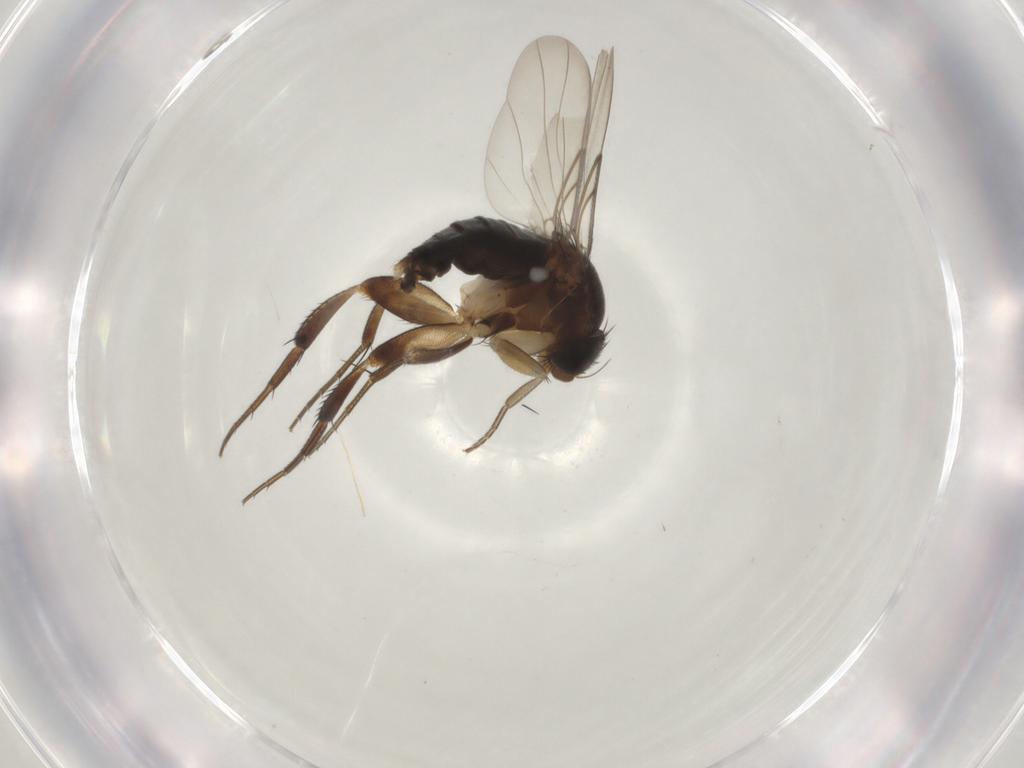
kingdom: Animalia
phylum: Arthropoda
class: Insecta
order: Diptera
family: Phoridae
